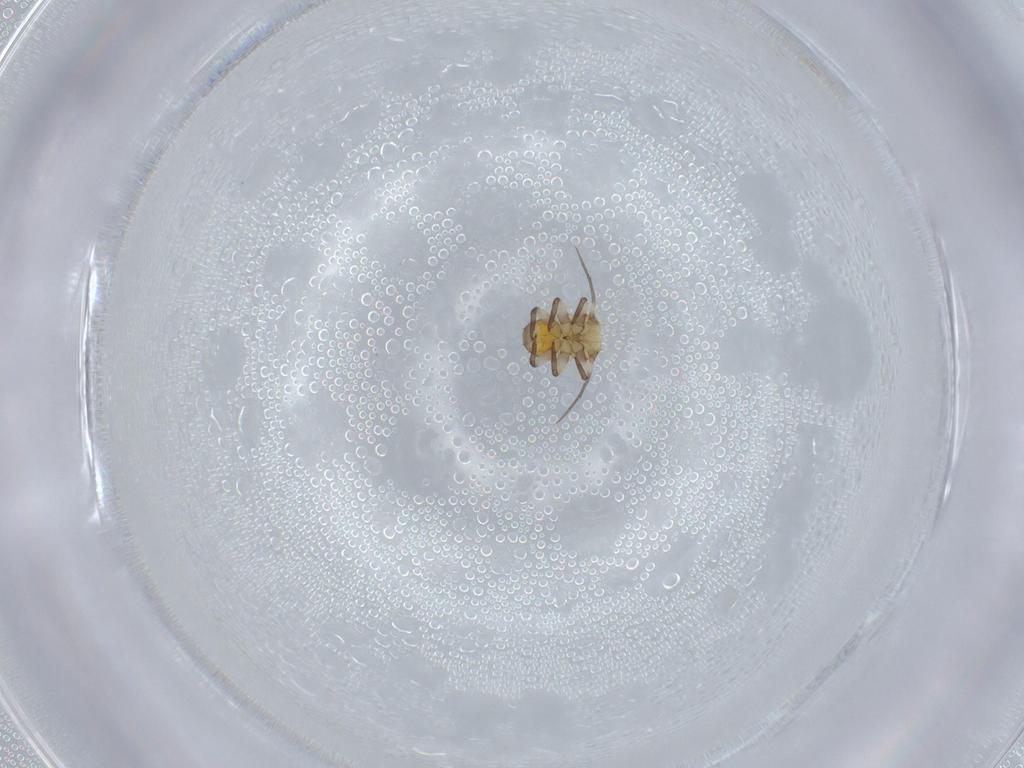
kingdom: Animalia
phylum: Arthropoda
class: Insecta
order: Hemiptera
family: Psyllidae
